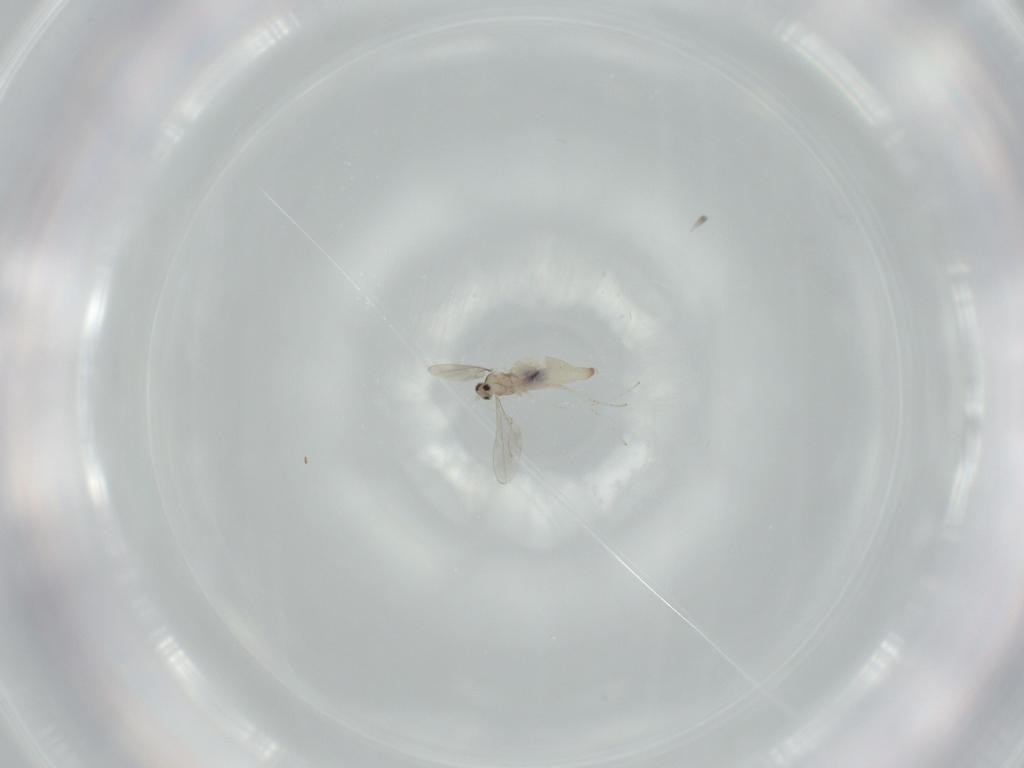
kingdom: Animalia
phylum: Arthropoda
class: Insecta
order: Diptera
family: Cecidomyiidae
